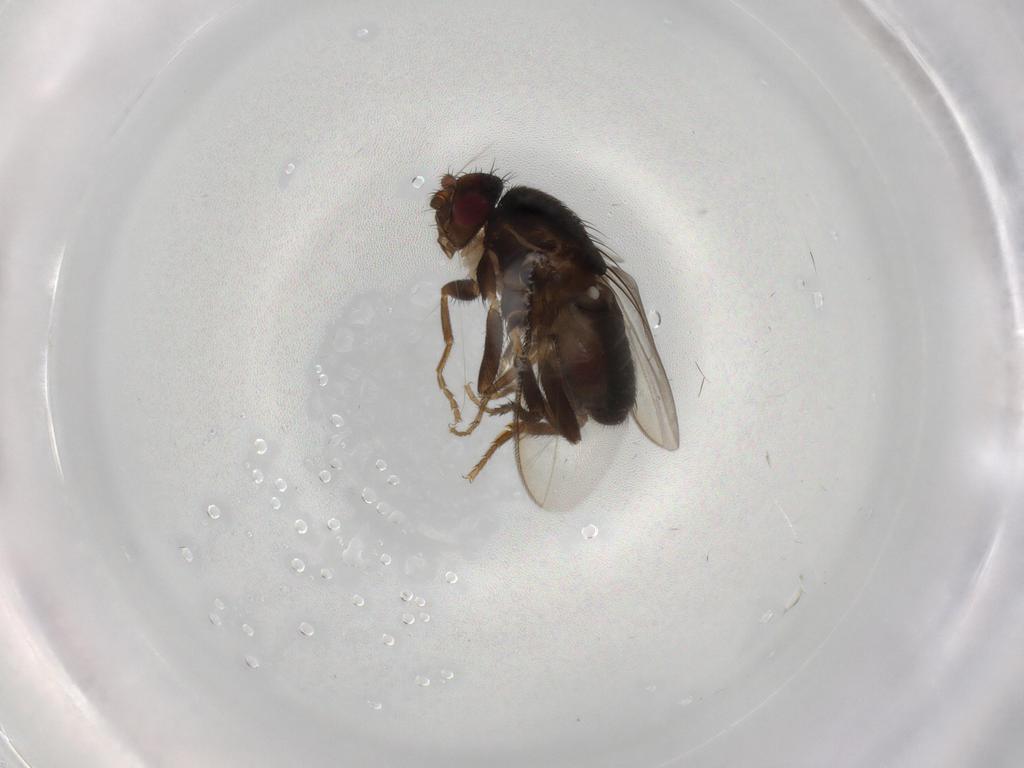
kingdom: Animalia
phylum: Arthropoda
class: Insecta
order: Diptera
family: Sphaeroceridae
